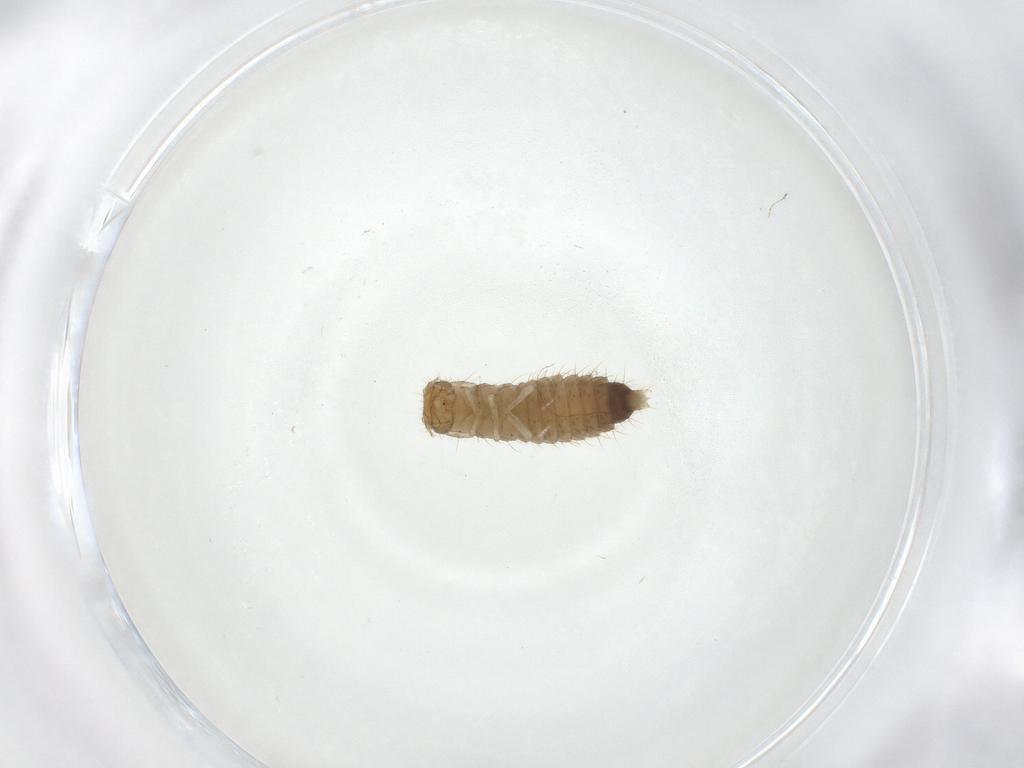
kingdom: Animalia
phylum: Arthropoda
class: Insecta
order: Coleoptera
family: Staphylinidae
